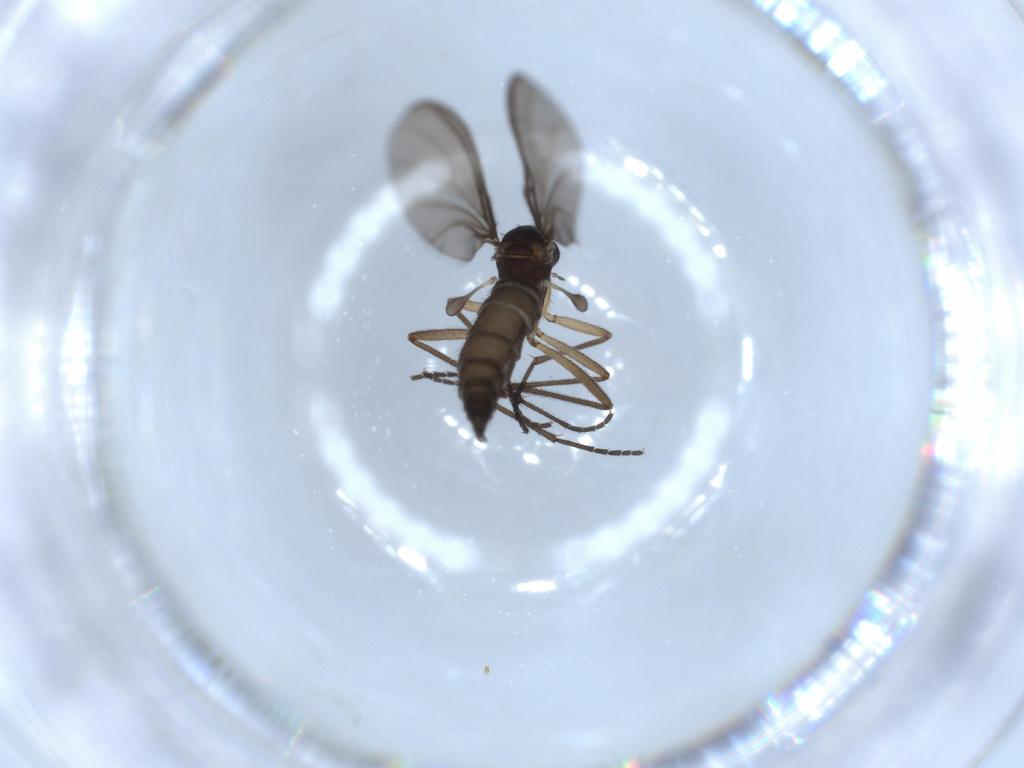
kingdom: Animalia
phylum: Arthropoda
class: Insecta
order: Diptera
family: Sciaridae
